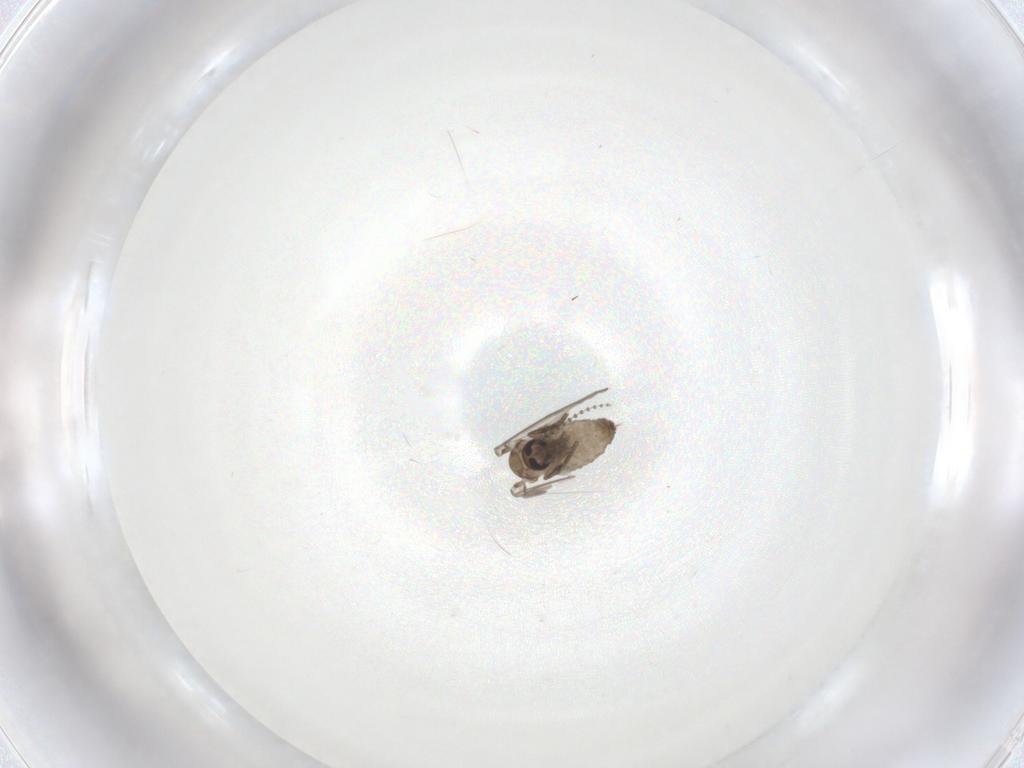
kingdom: Animalia
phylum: Arthropoda
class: Insecta
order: Diptera
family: Psychodidae
